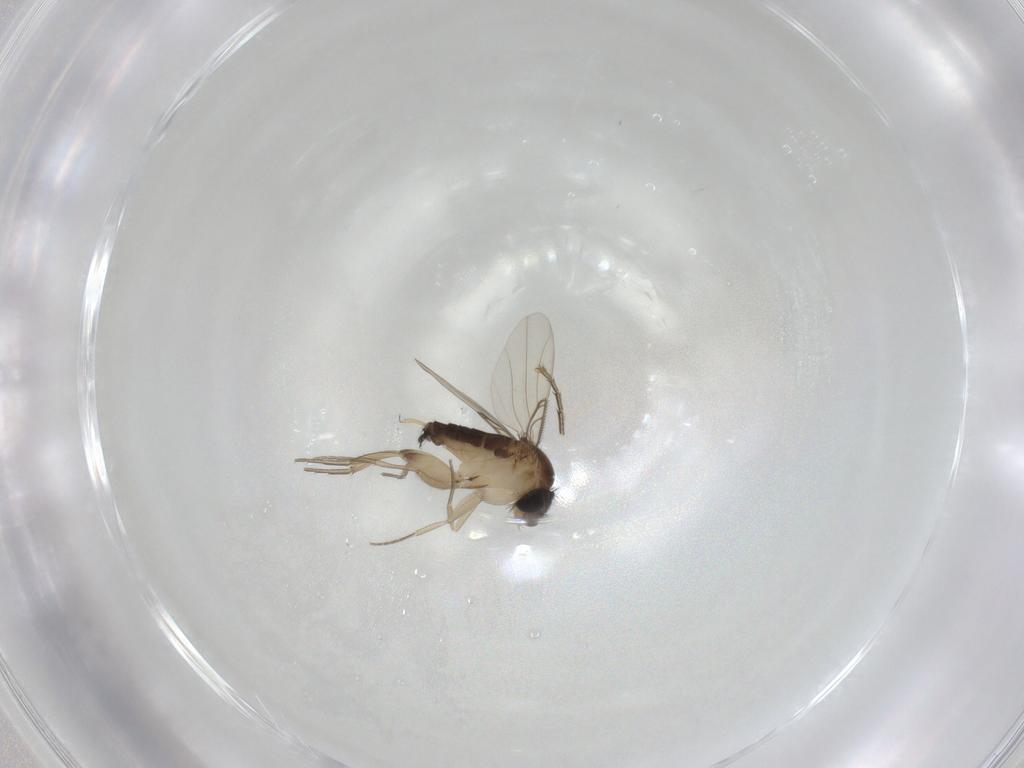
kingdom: Animalia
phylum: Arthropoda
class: Insecta
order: Diptera
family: Phoridae
